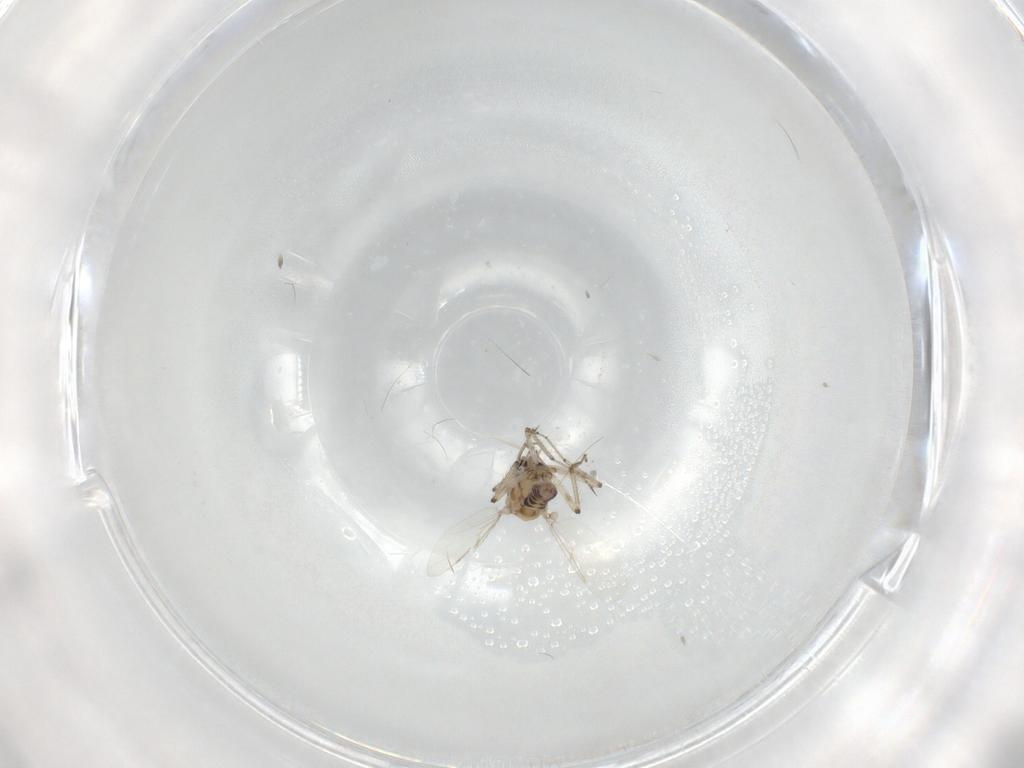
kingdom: Animalia
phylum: Arthropoda
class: Insecta
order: Diptera
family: Ceratopogonidae
